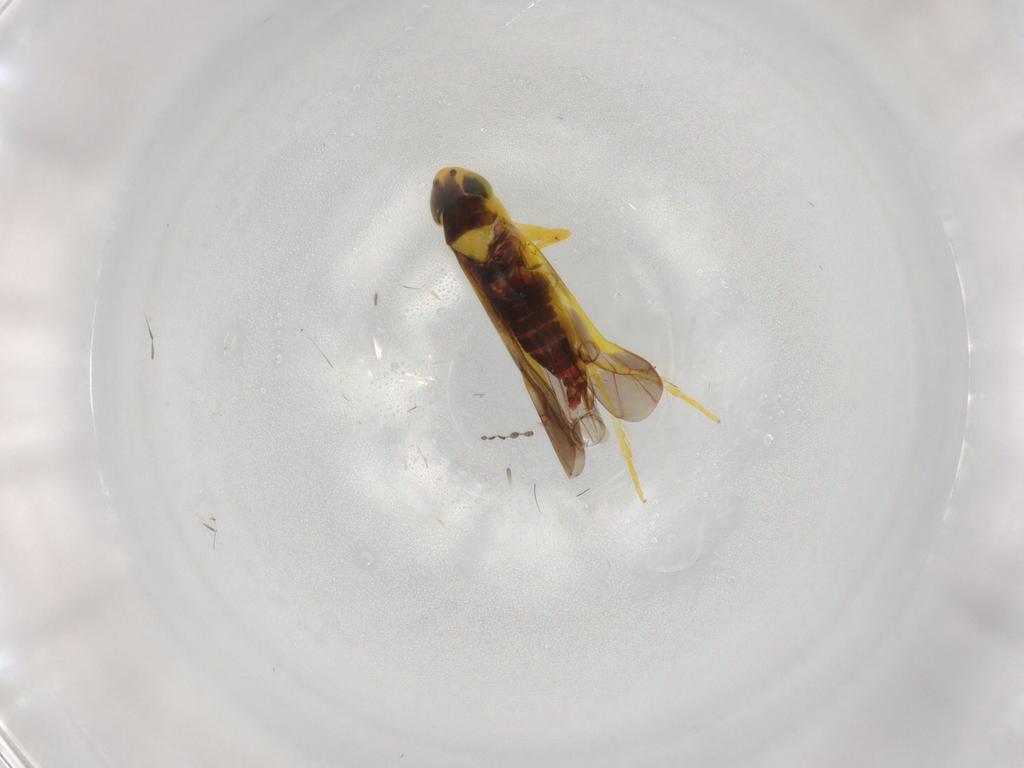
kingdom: Animalia
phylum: Arthropoda
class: Insecta
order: Hemiptera
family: Cicadellidae
